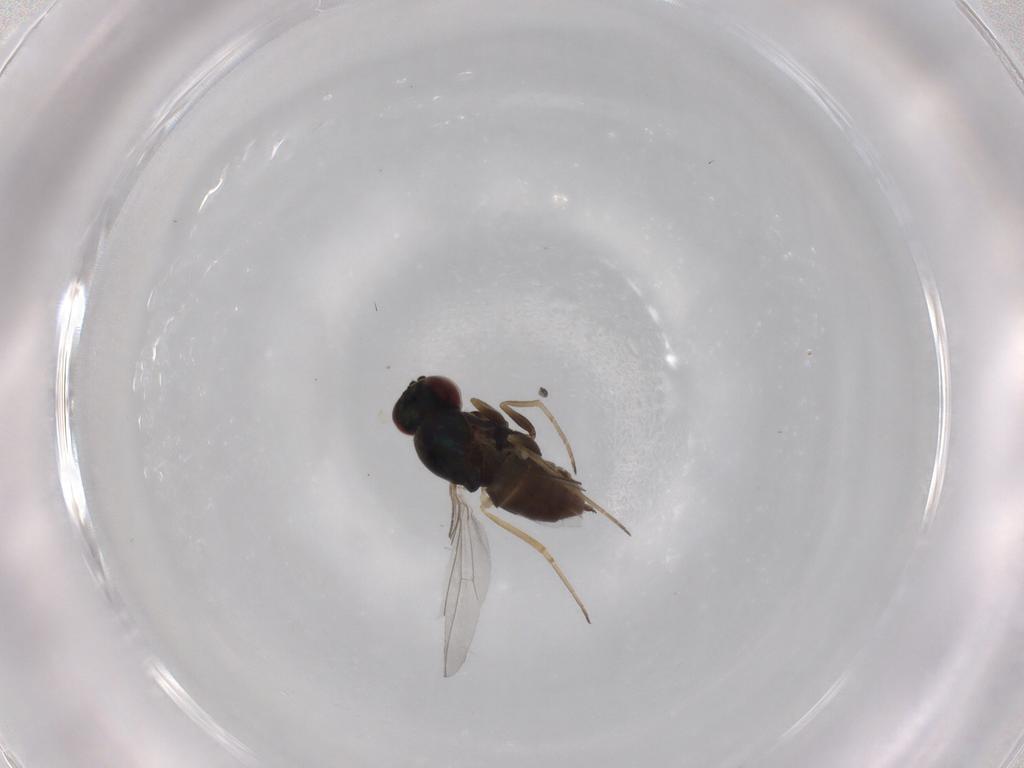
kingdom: Animalia
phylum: Arthropoda
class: Insecta
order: Diptera
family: Dolichopodidae
